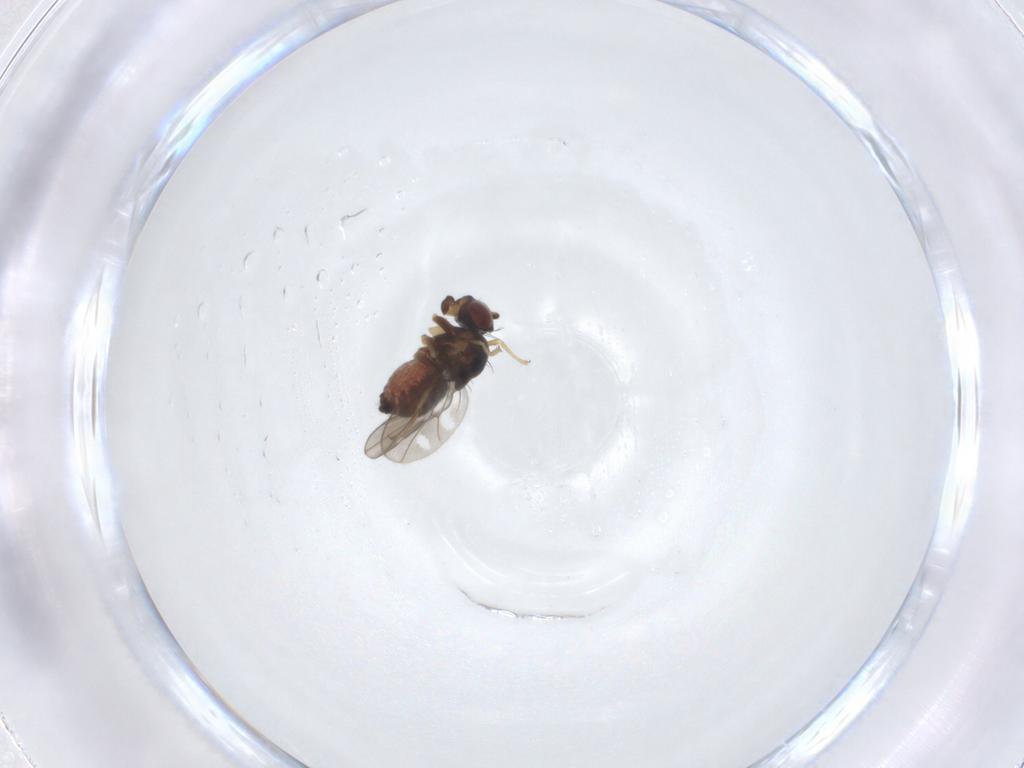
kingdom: Animalia
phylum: Arthropoda
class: Insecta
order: Diptera
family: Ephydridae
